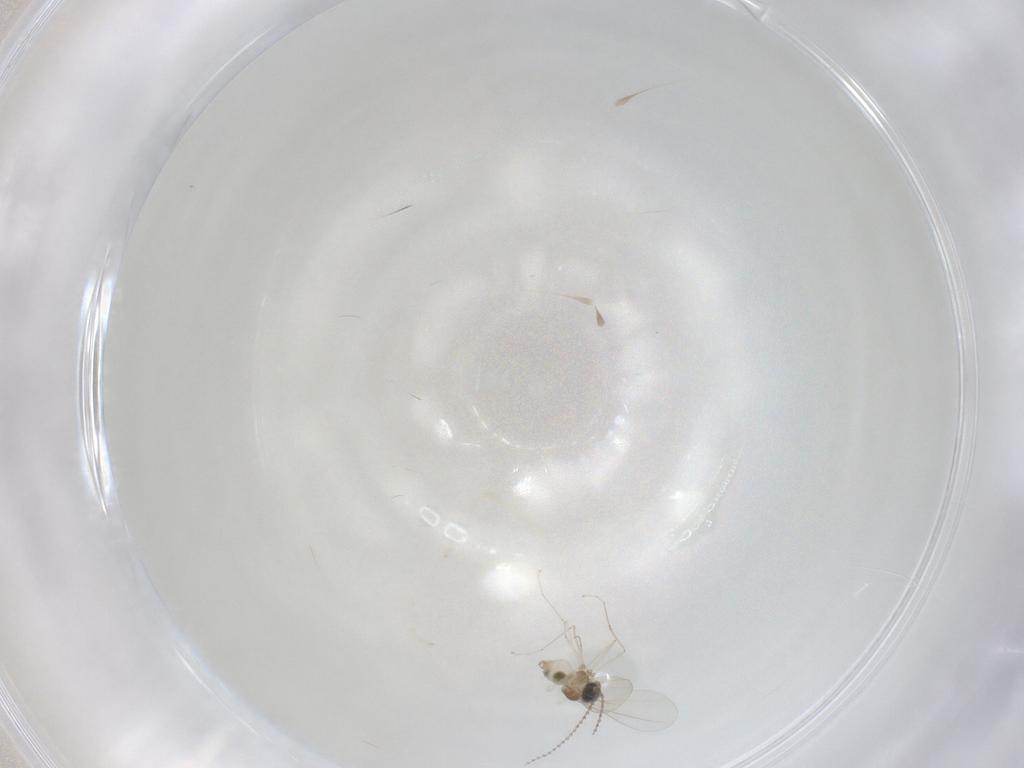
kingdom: Animalia
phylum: Arthropoda
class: Insecta
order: Diptera
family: Cecidomyiidae
